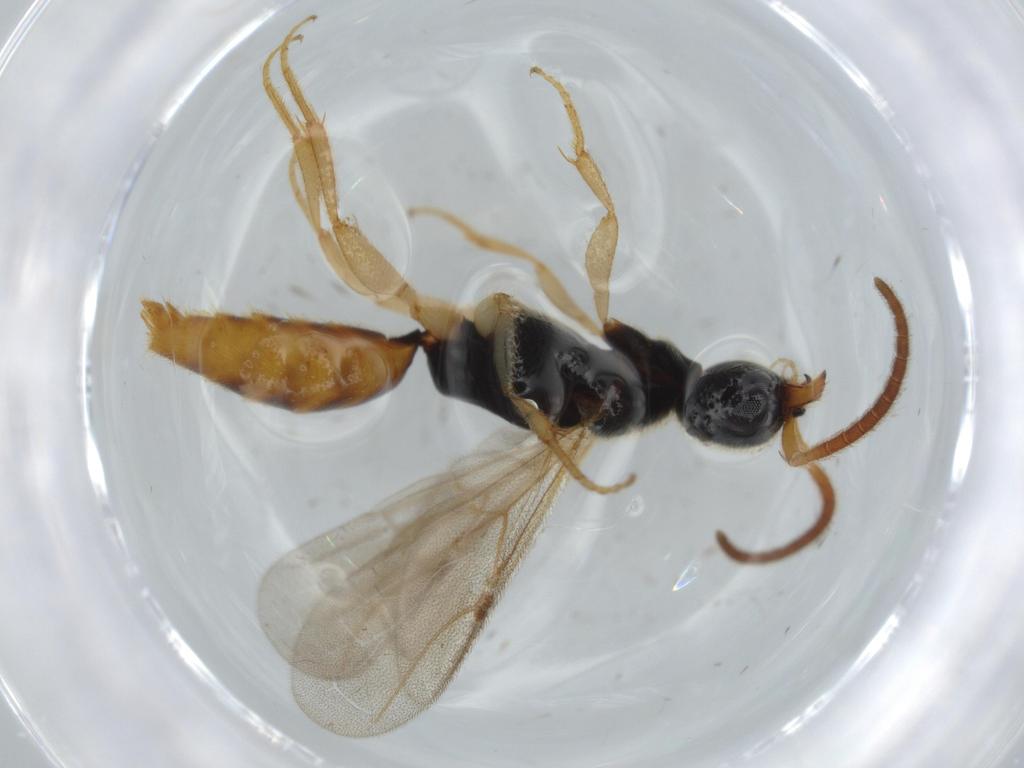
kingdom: Animalia
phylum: Arthropoda
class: Insecta
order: Hymenoptera
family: Bethylidae
